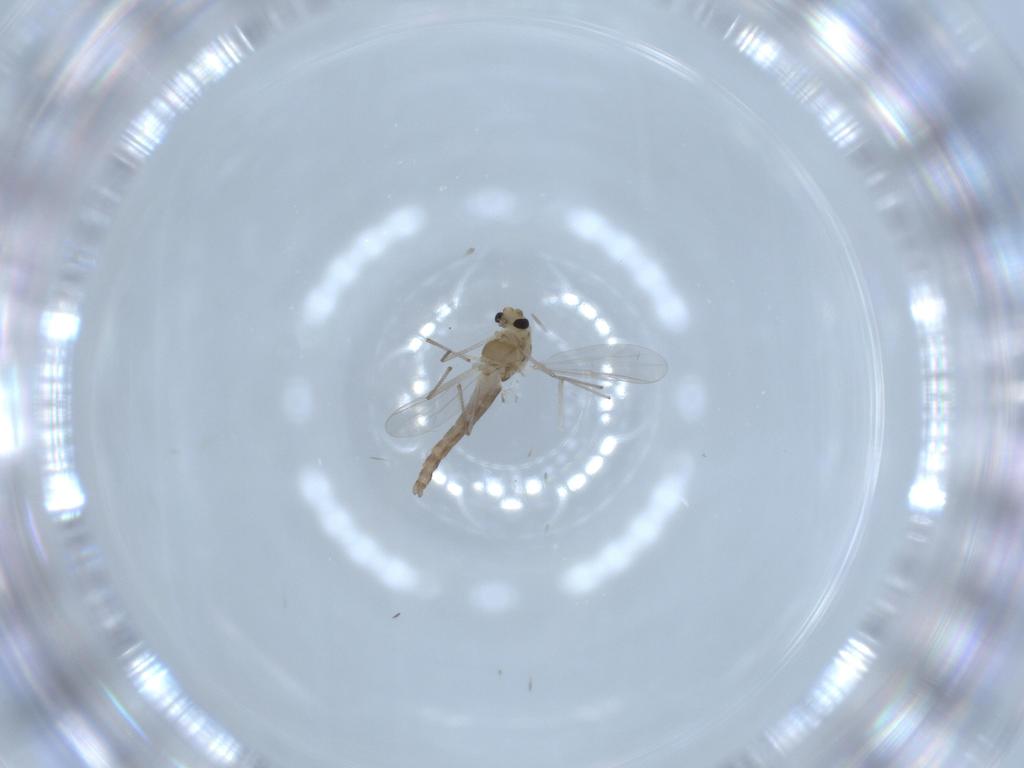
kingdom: Animalia
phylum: Arthropoda
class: Insecta
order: Diptera
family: Chironomidae
